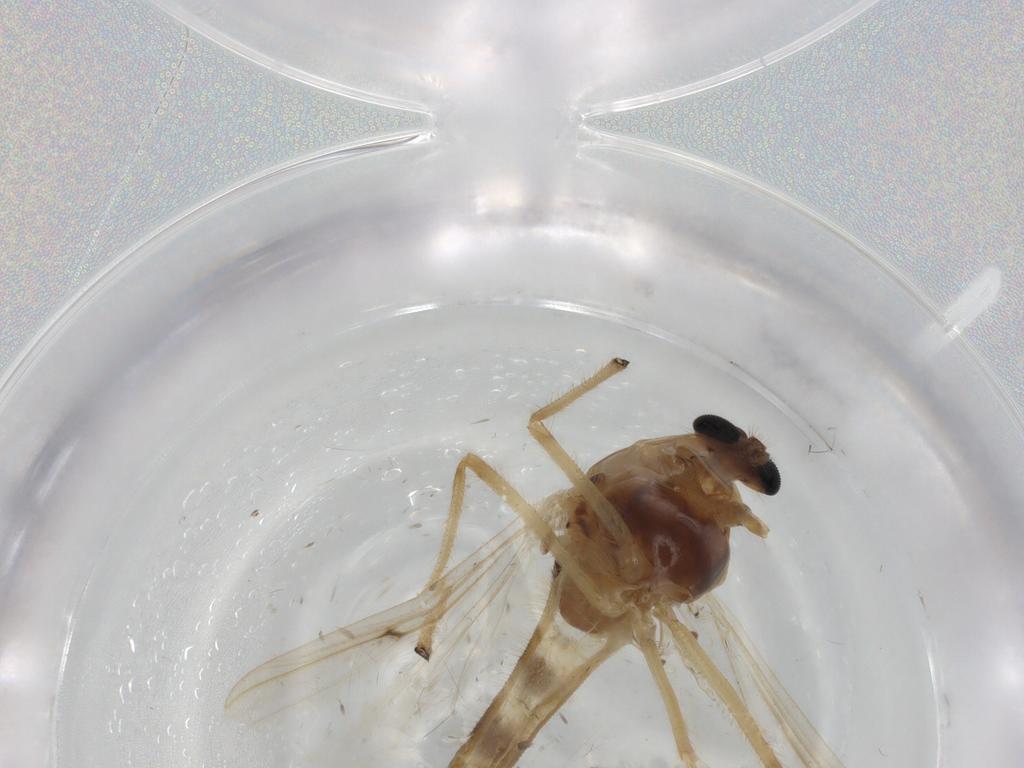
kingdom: Animalia
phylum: Arthropoda
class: Insecta
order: Diptera
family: Chironomidae
